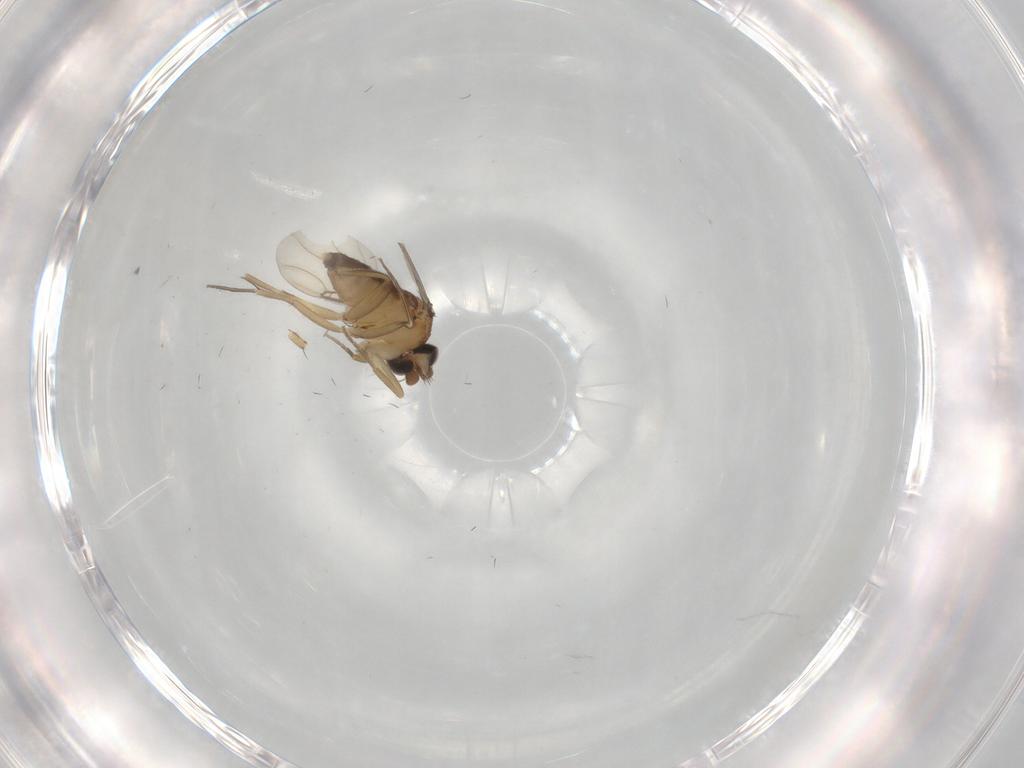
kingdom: Animalia
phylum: Arthropoda
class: Insecta
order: Diptera
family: Phoridae
